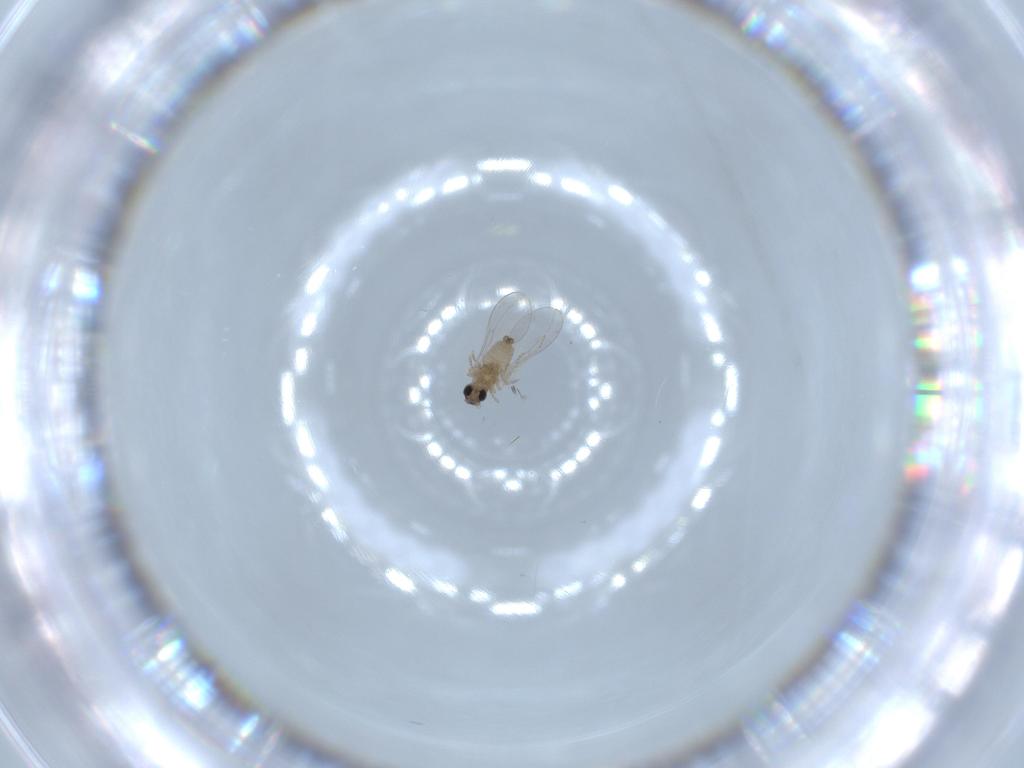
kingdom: Animalia
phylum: Arthropoda
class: Insecta
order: Diptera
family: Cecidomyiidae
